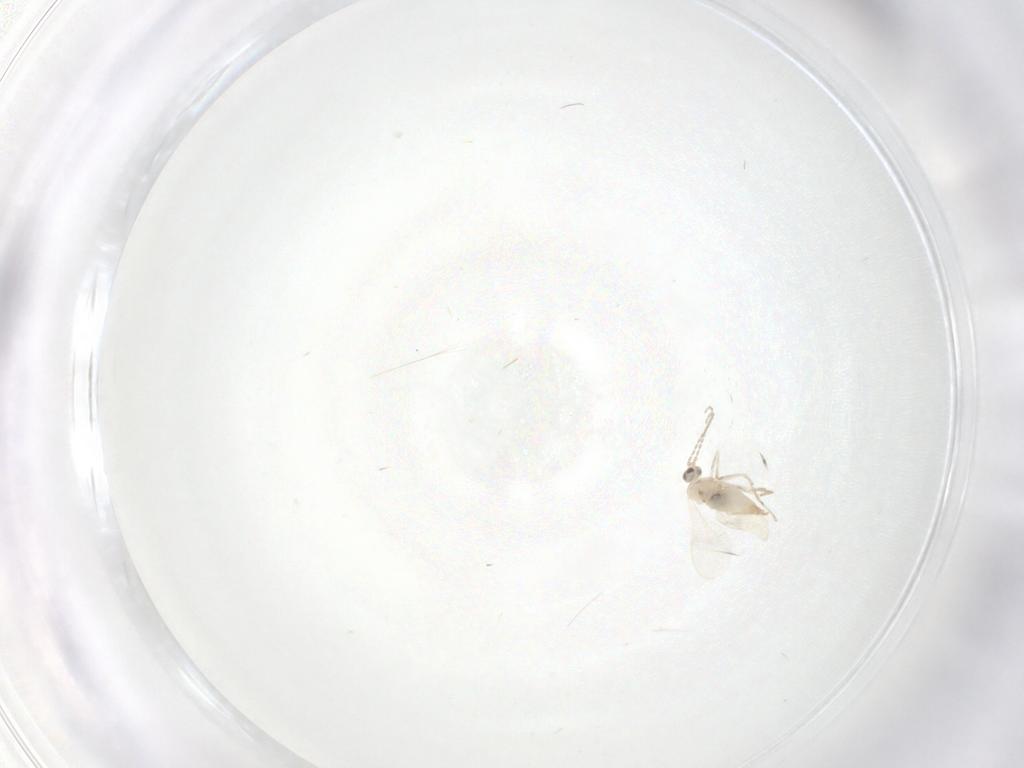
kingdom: Animalia
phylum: Arthropoda
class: Insecta
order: Diptera
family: Cecidomyiidae
